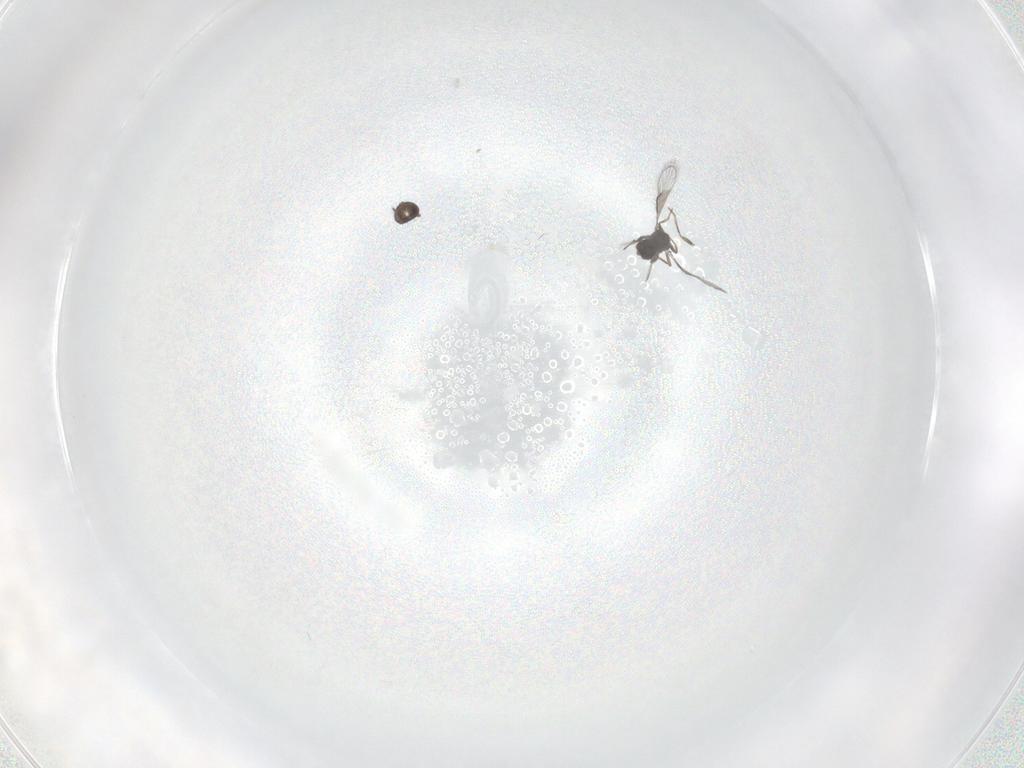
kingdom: Animalia
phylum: Arthropoda
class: Insecta
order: Hymenoptera
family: Trichogrammatidae
